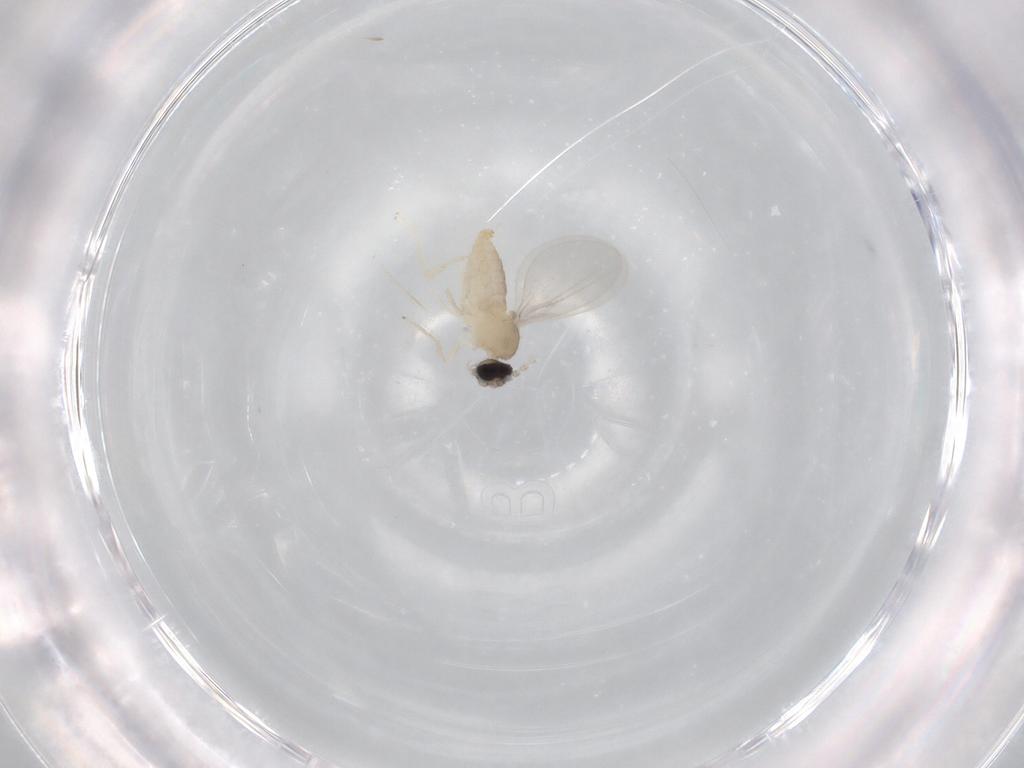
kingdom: Animalia
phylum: Arthropoda
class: Insecta
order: Diptera
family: Cecidomyiidae
